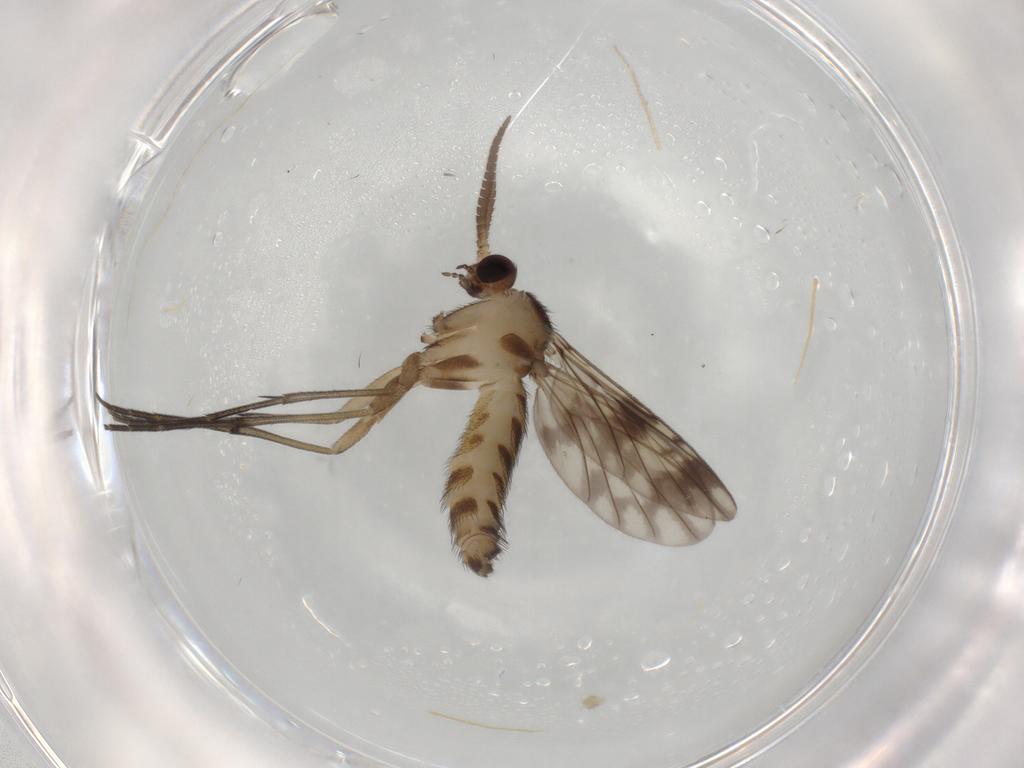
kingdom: Animalia
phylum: Arthropoda
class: Insecta
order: Diptera
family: Keroplatidae
